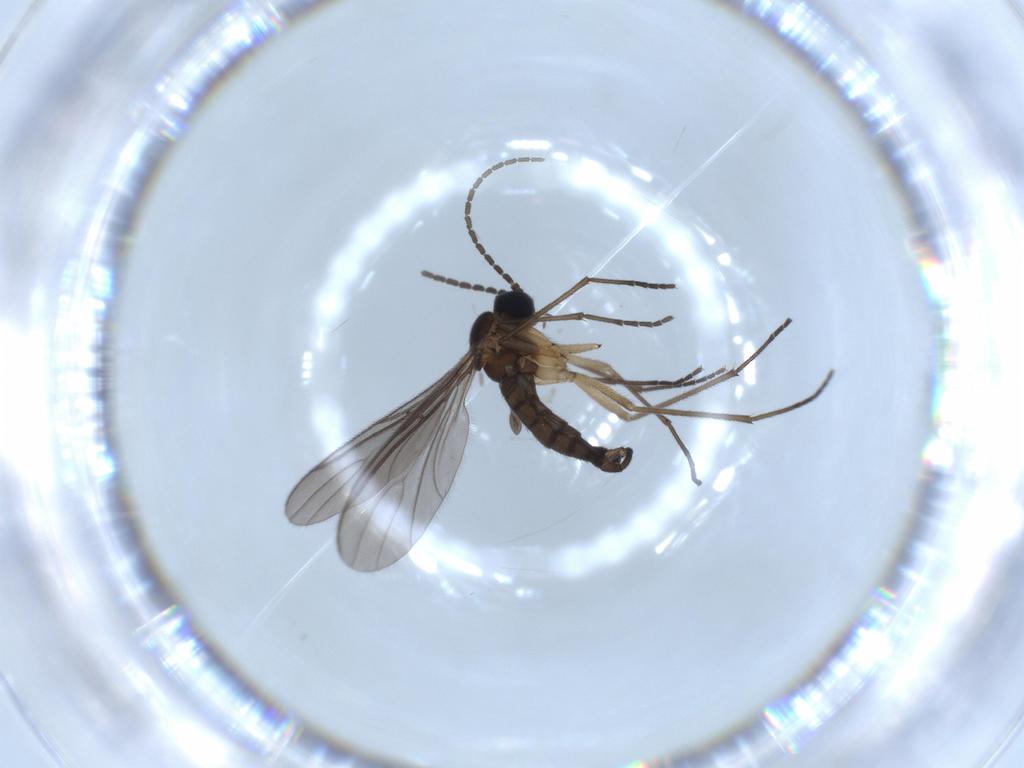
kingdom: Animalia
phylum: Arthropoda
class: Insecta
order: Diptera
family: Sciaridae
